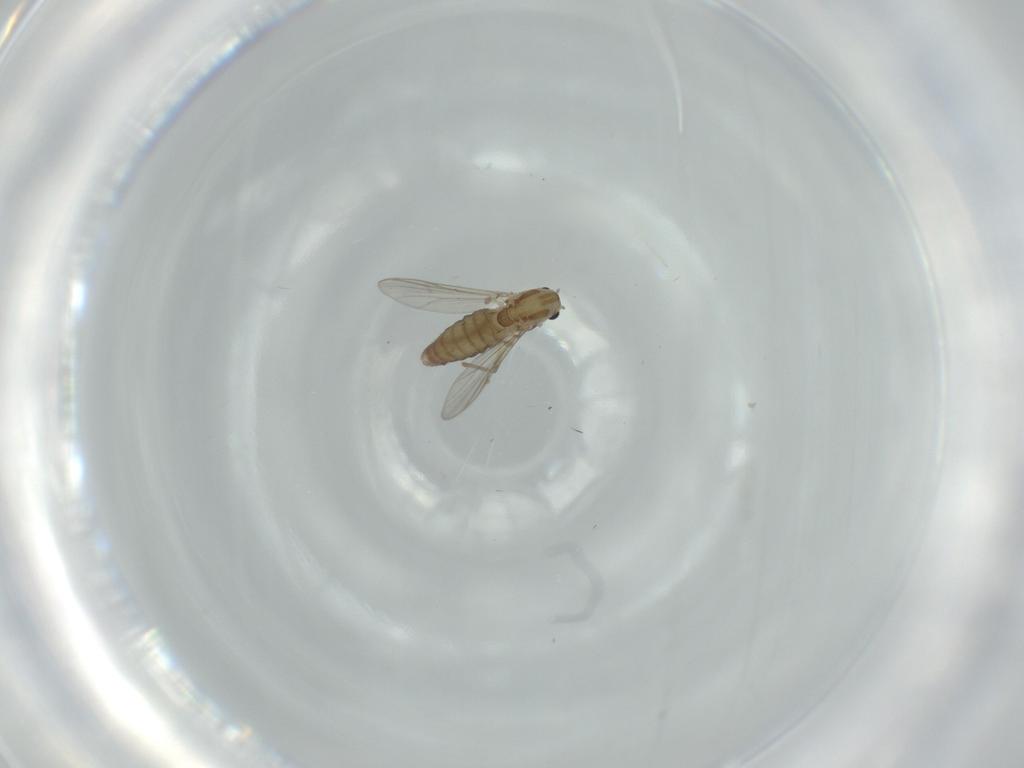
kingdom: Animalia
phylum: Arthropoda
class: Insecta
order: Diptera
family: Chironomidae
